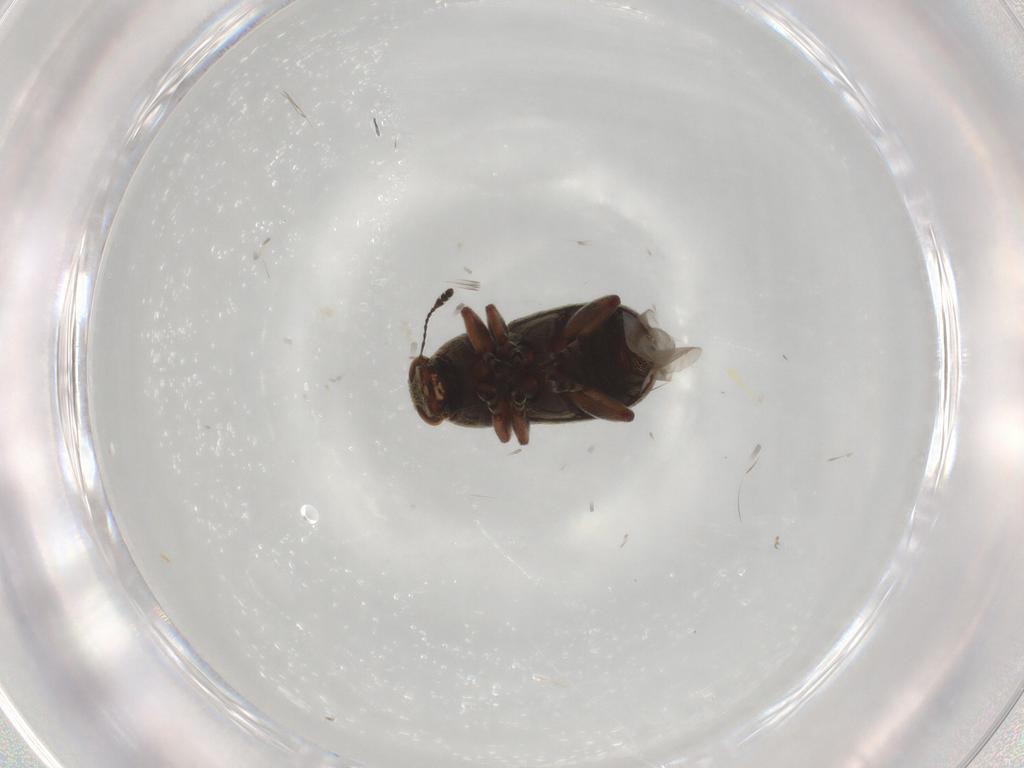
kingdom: Animalia
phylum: Arthropoda
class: Insecta
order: Coleoptera
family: Anthribidae
